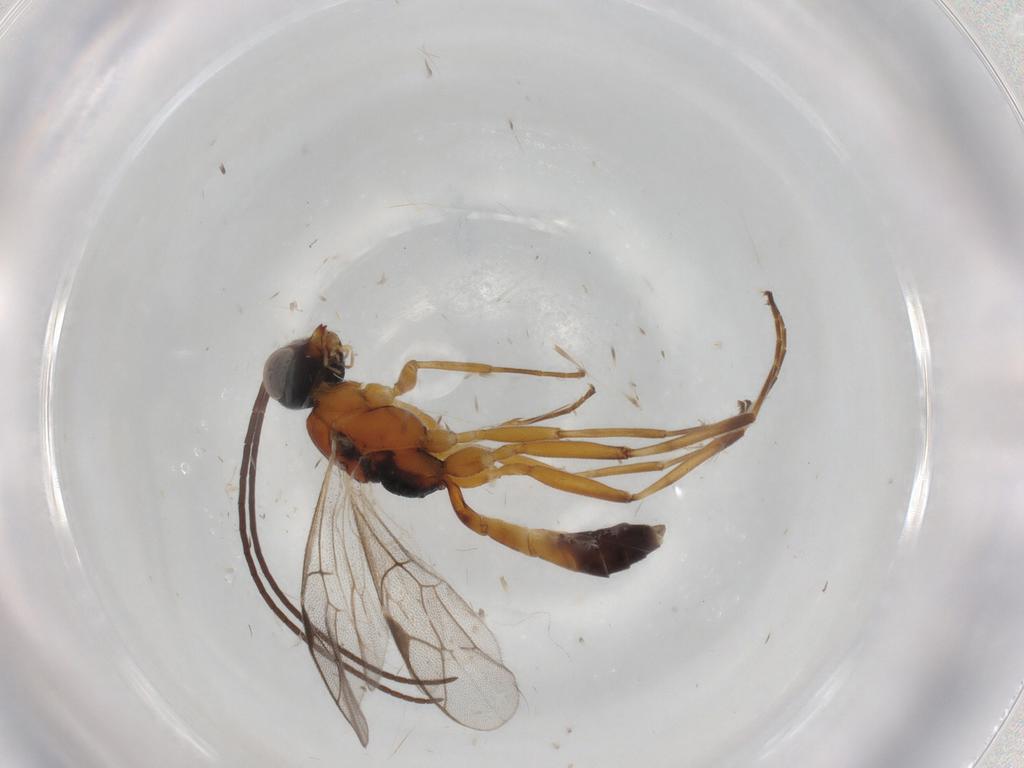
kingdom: Animalia
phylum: Arthropoda
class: Insecta
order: Hymenoptera
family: Ichneumonidae
